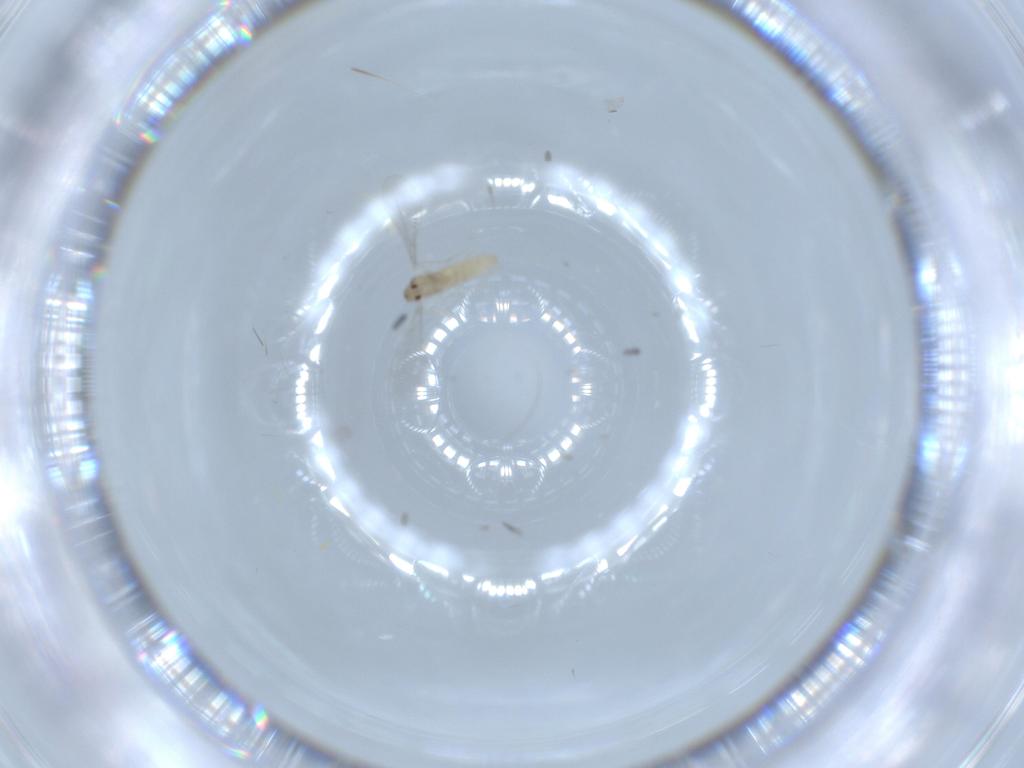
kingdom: Animalia
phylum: Arthropoda
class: Insecta
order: Diptera
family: Cecidomyiidae
